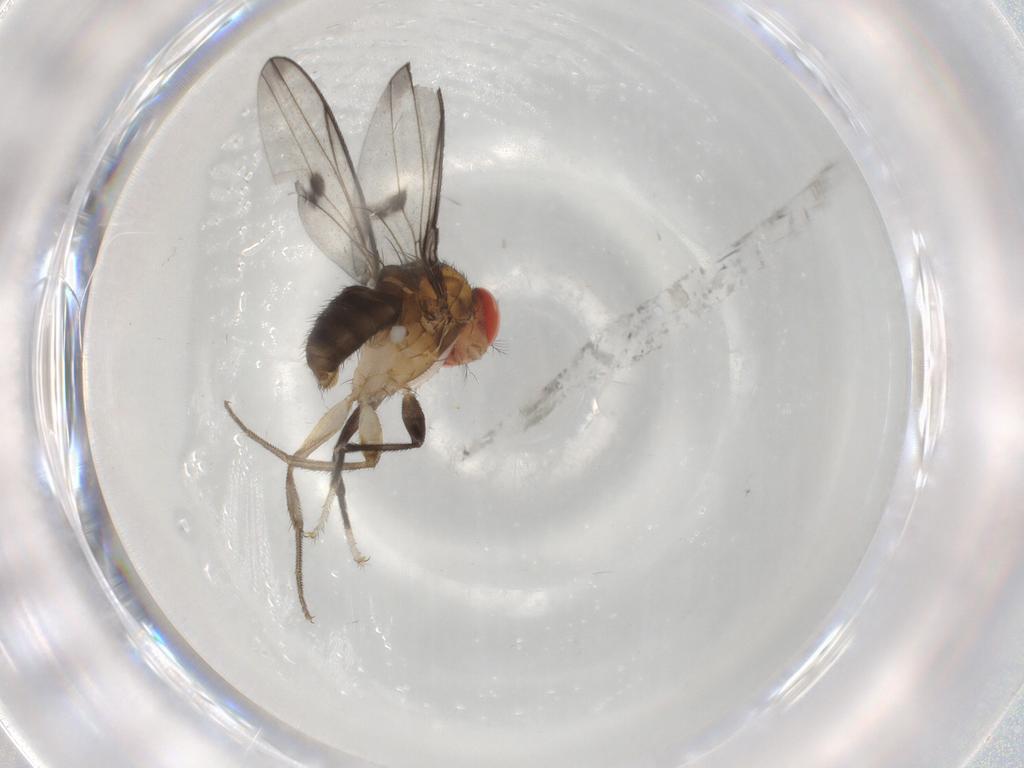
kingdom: Animalia
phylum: Arthropoda
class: Insecta
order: Diptera
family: Drosophilidae
